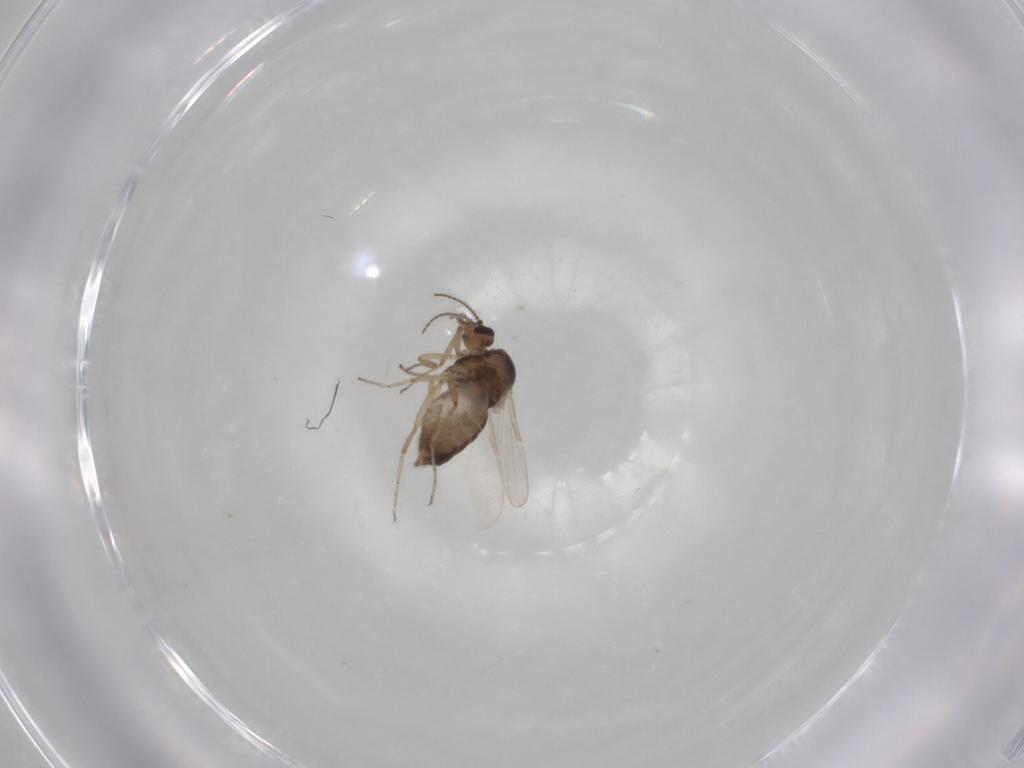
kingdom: Animalia
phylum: Arthropoda
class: Insecta
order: Diptera
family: Ceratopogonidae
